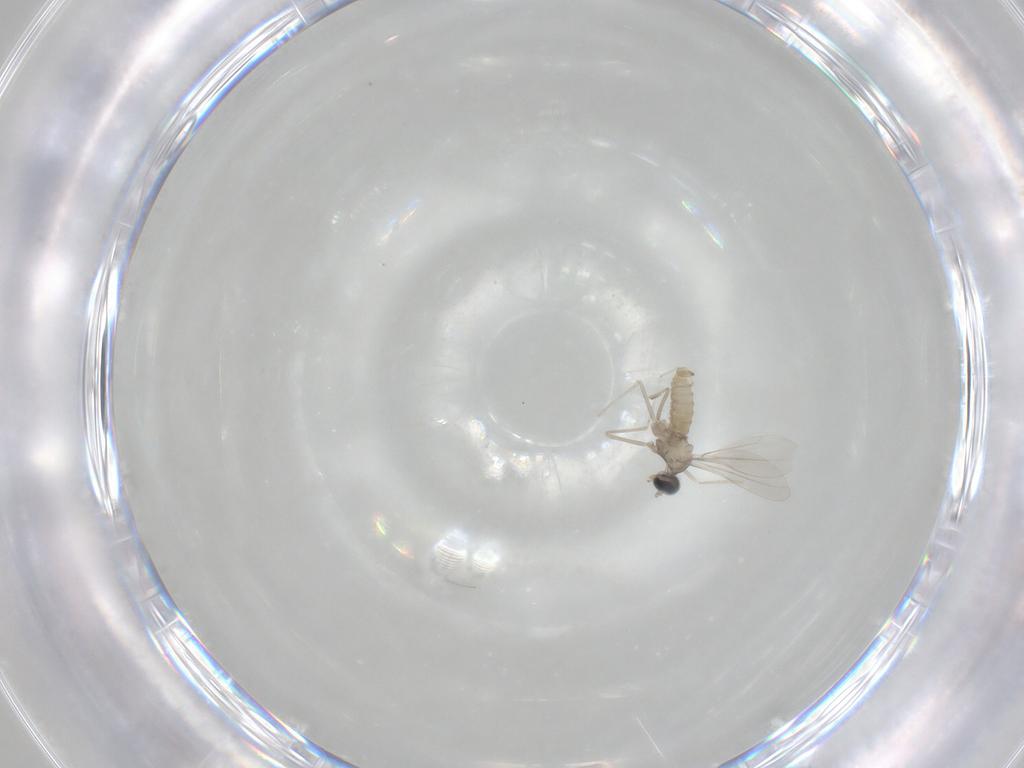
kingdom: Animalia
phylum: Arthropoda
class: Insecta
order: Diptera
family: Cecidomyiidae
